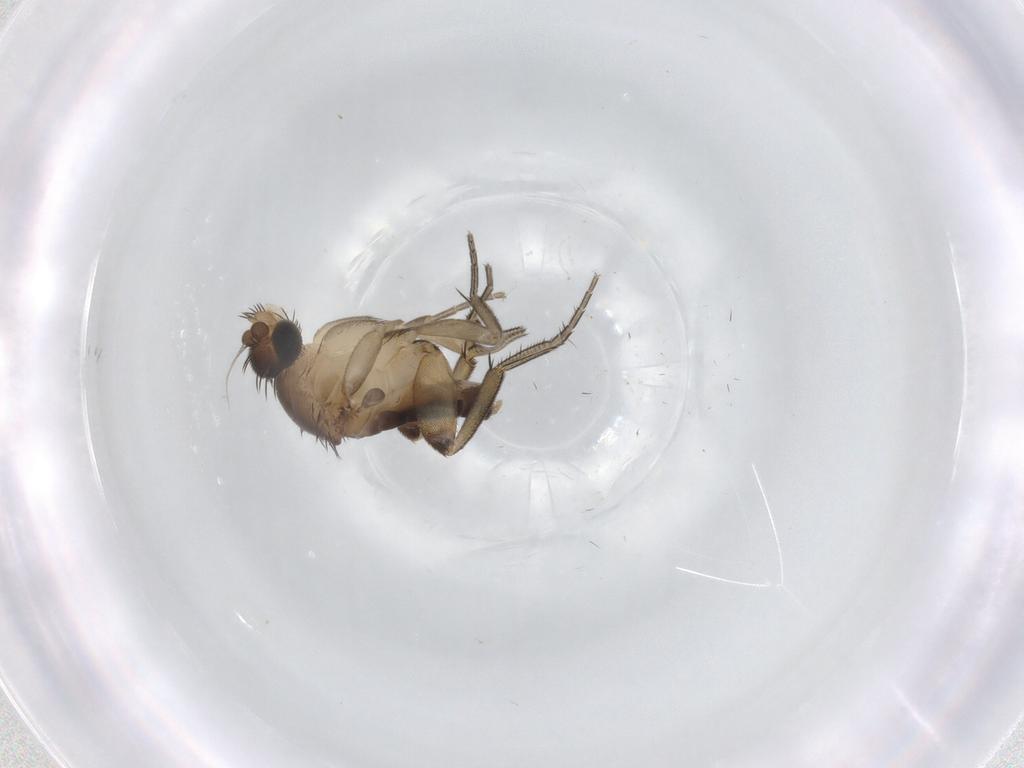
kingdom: Animalia
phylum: Arthropoda
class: Insecta
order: Diptera
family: Phoridae
